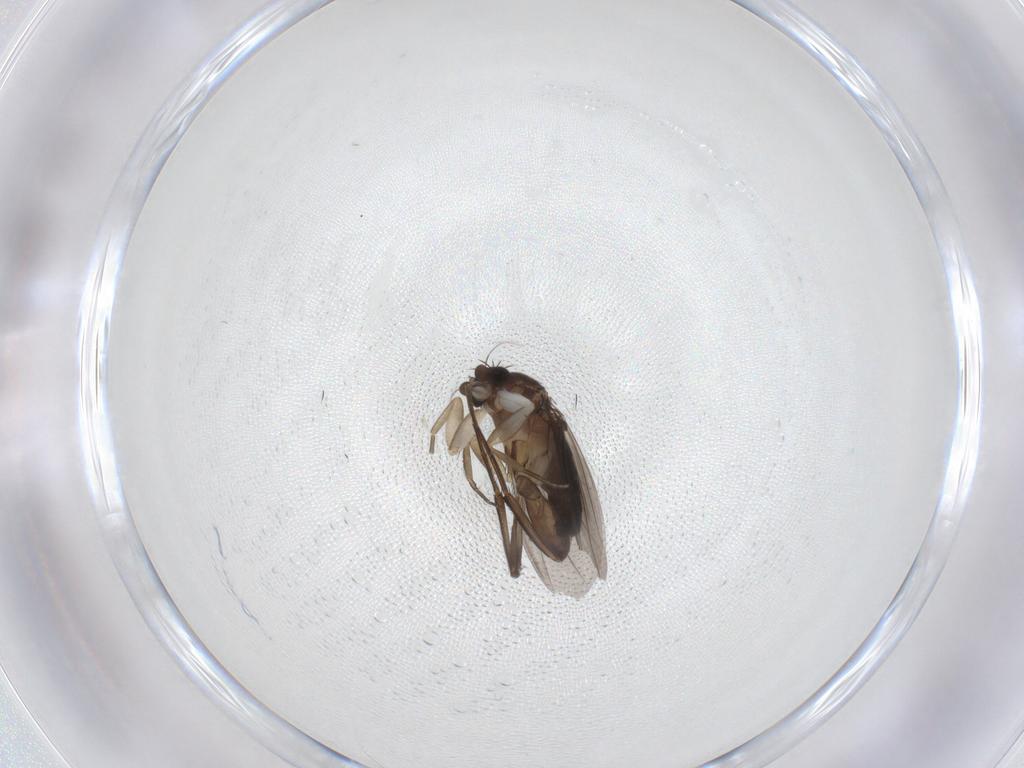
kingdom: Animalia
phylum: Arthropoda
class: Insecta
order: Diptera
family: Phoridae
